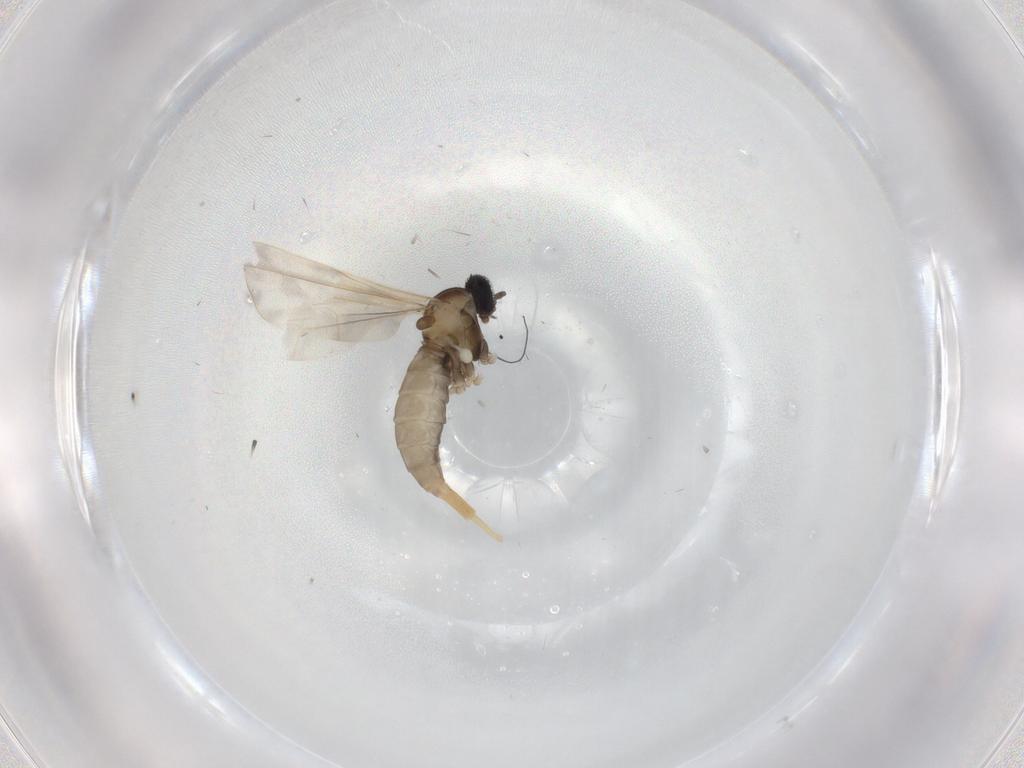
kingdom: Animalia
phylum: Arthropoda
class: Insecta
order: Diptera
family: Cecidomyiidae
